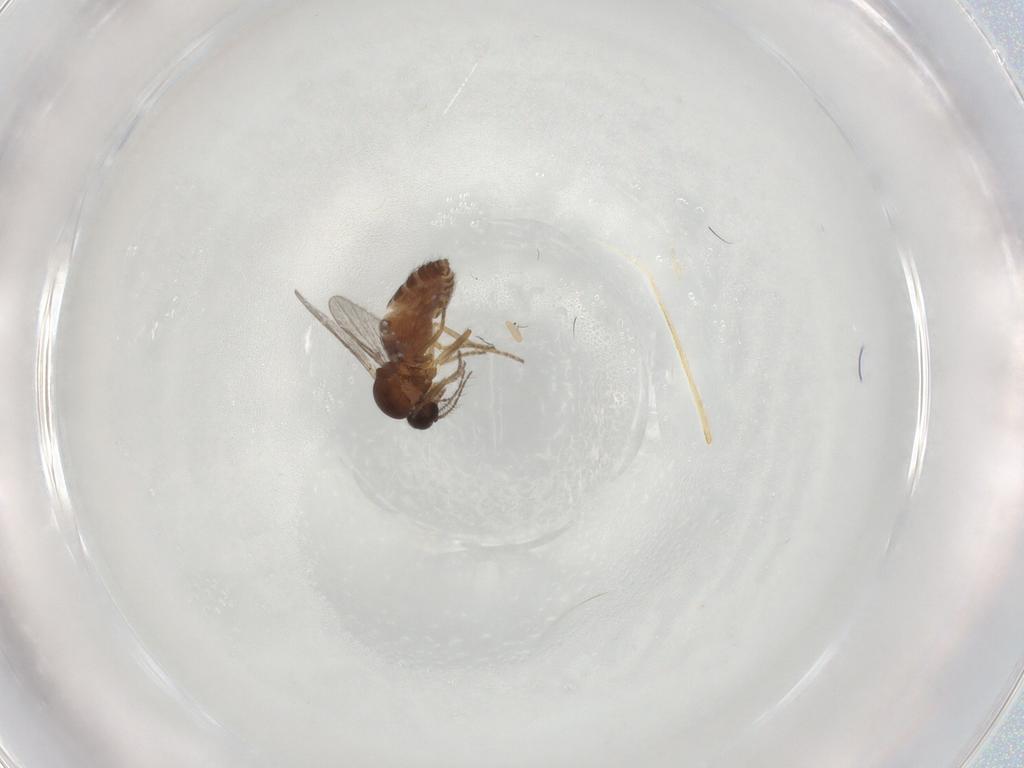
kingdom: Animalia
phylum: Arthropoda
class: Insecta
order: Diptera
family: Ceratopogonidae
